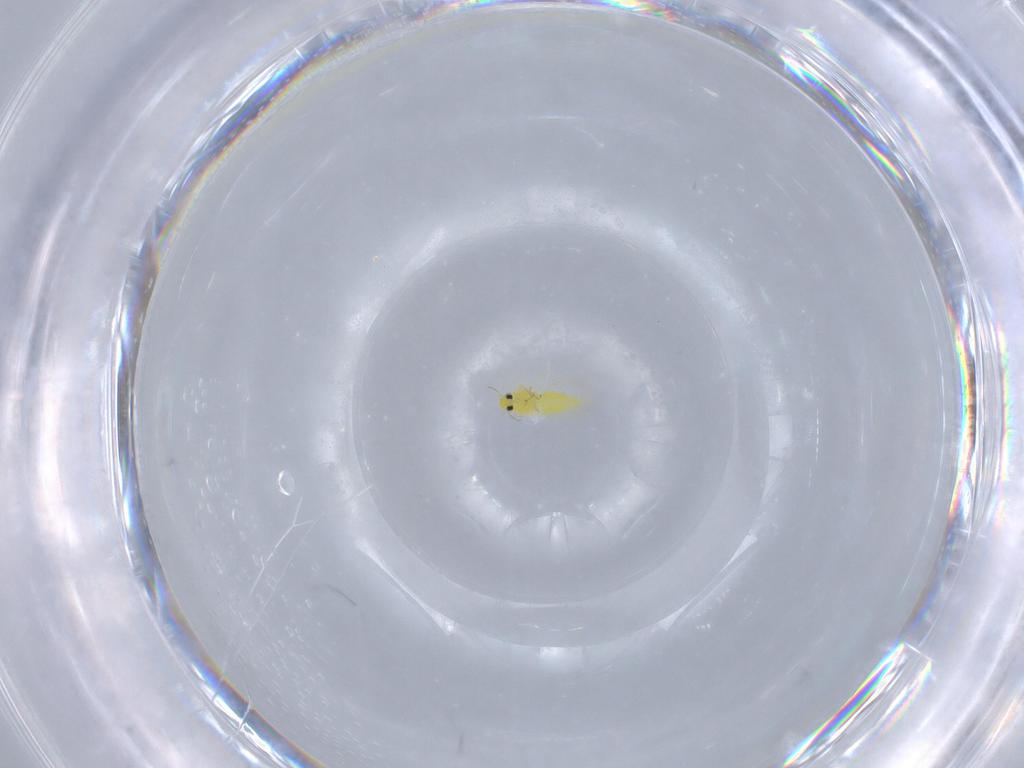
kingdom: Animalia
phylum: Arthropoda
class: Insecta
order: Hemiptera
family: Aleyrodidae
